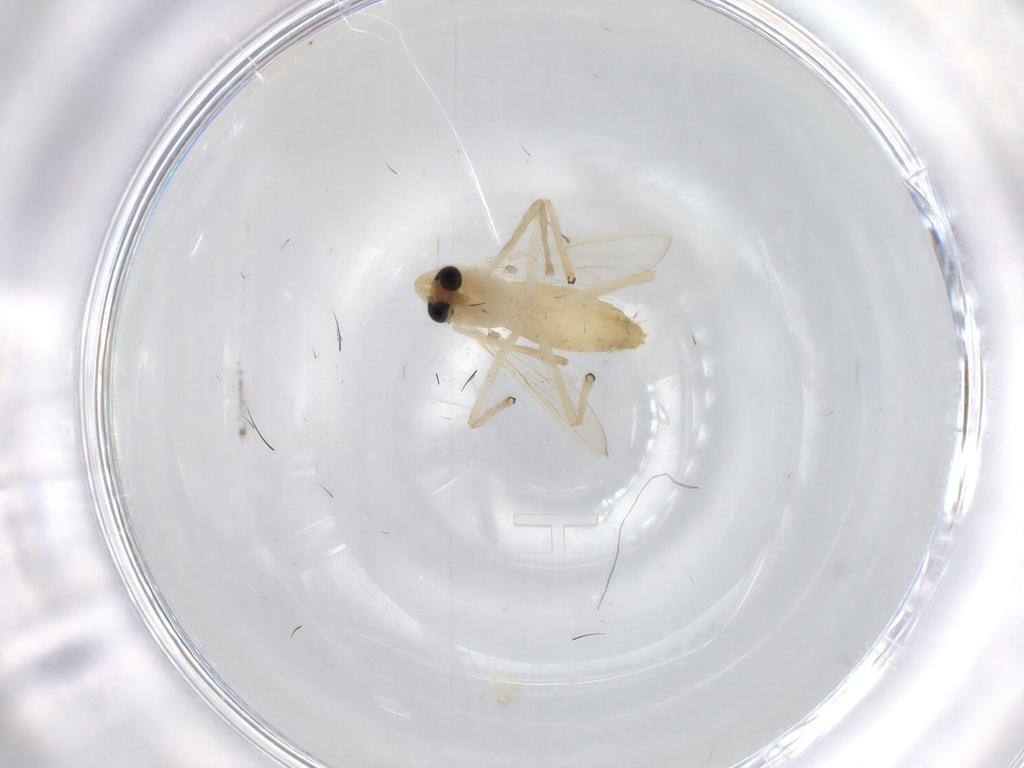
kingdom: Animalia
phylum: Arthropoda
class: Insecta
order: Diptera
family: Chironomidae
